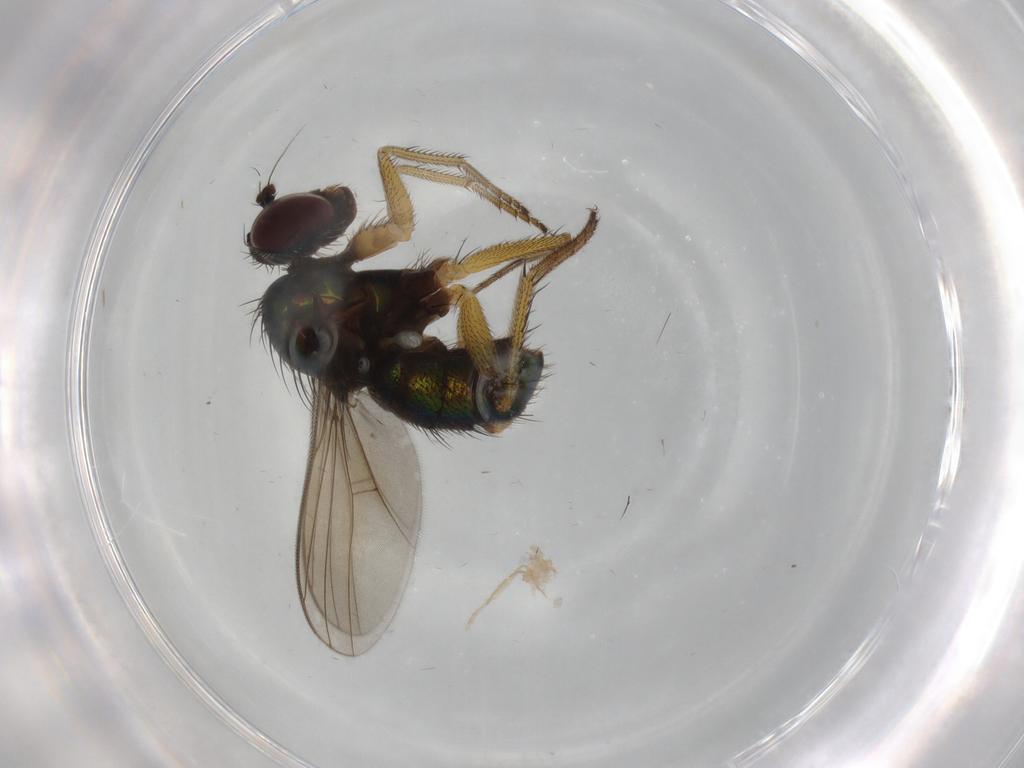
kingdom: Animalia
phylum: Arthropoda
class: Insecta
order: Diptera
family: Dolichopodidae
